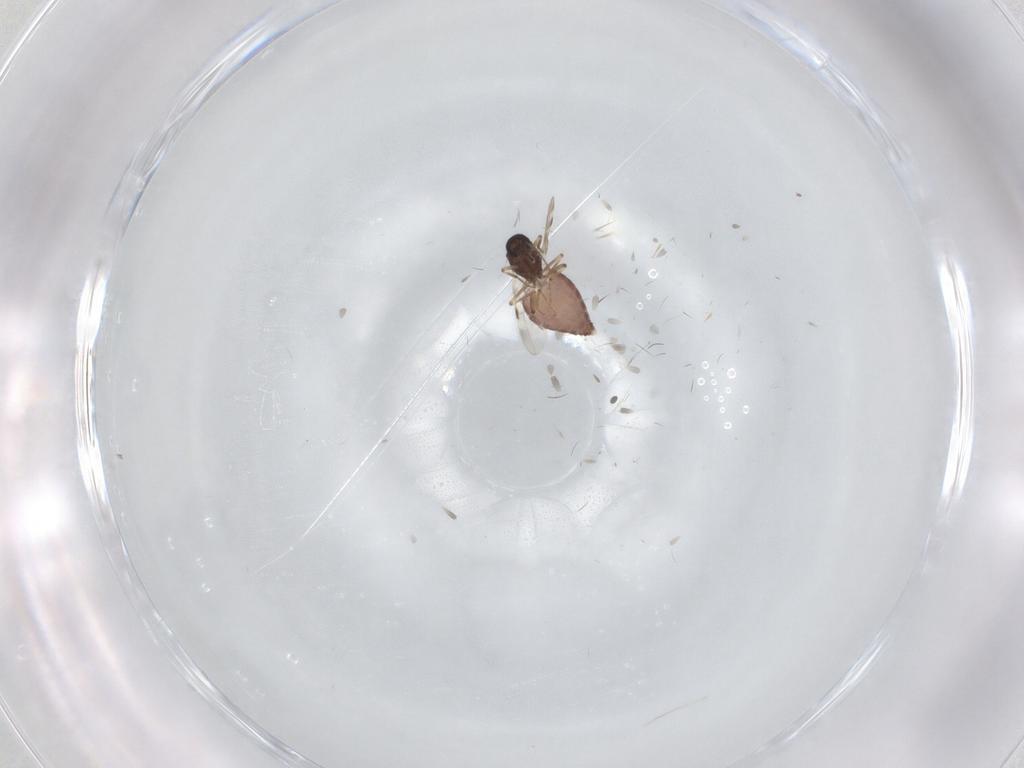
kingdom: Animalia
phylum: Arthropoda
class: Insecta
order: Diptera
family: Tabanidae
